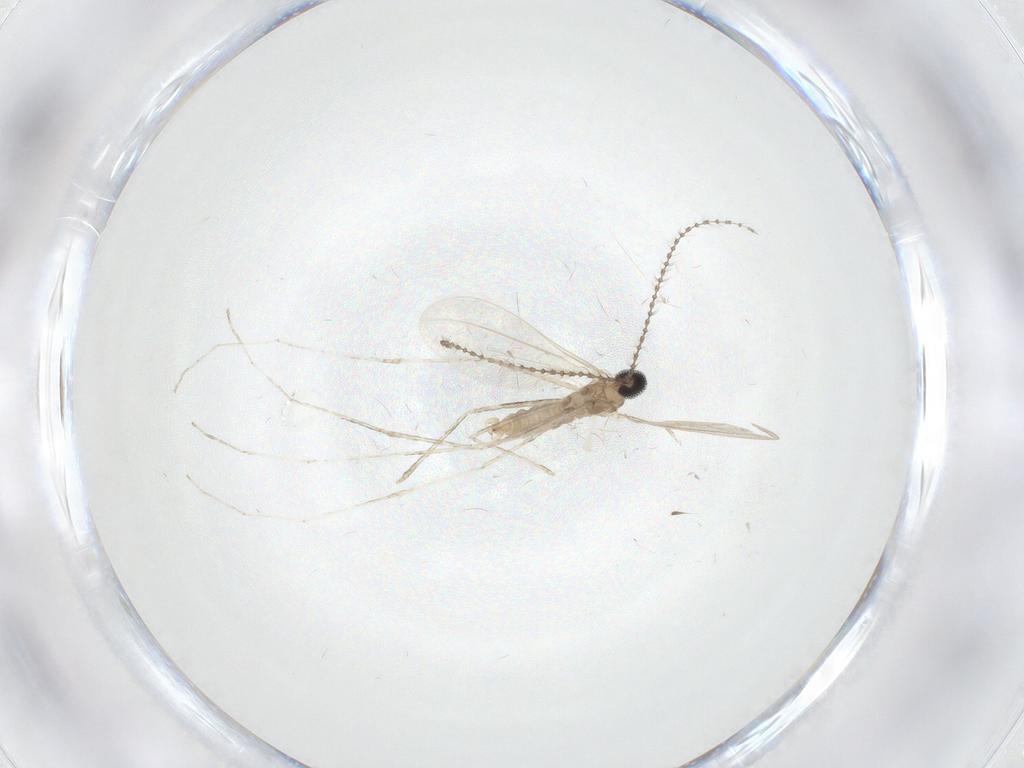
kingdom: Animalia
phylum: Arthropoda
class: Insecta
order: Diptera
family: Cecidomyiidae
